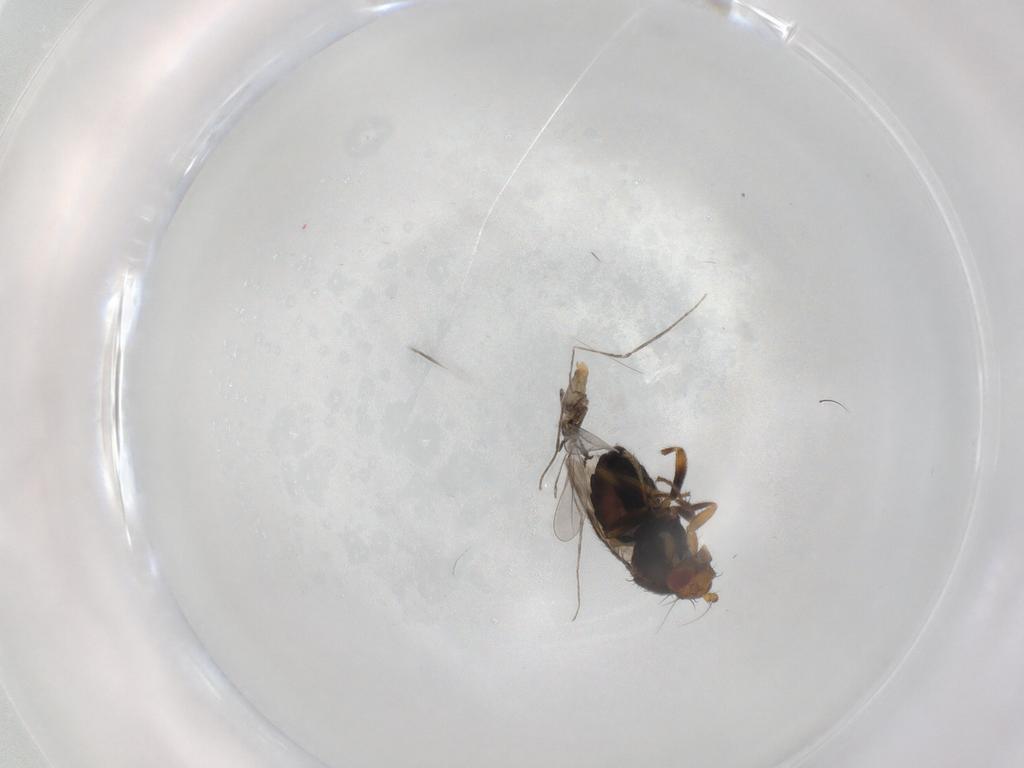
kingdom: Animalia
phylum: Arthropoda
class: Insecta
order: Diptera
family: Sphaeroceridae
